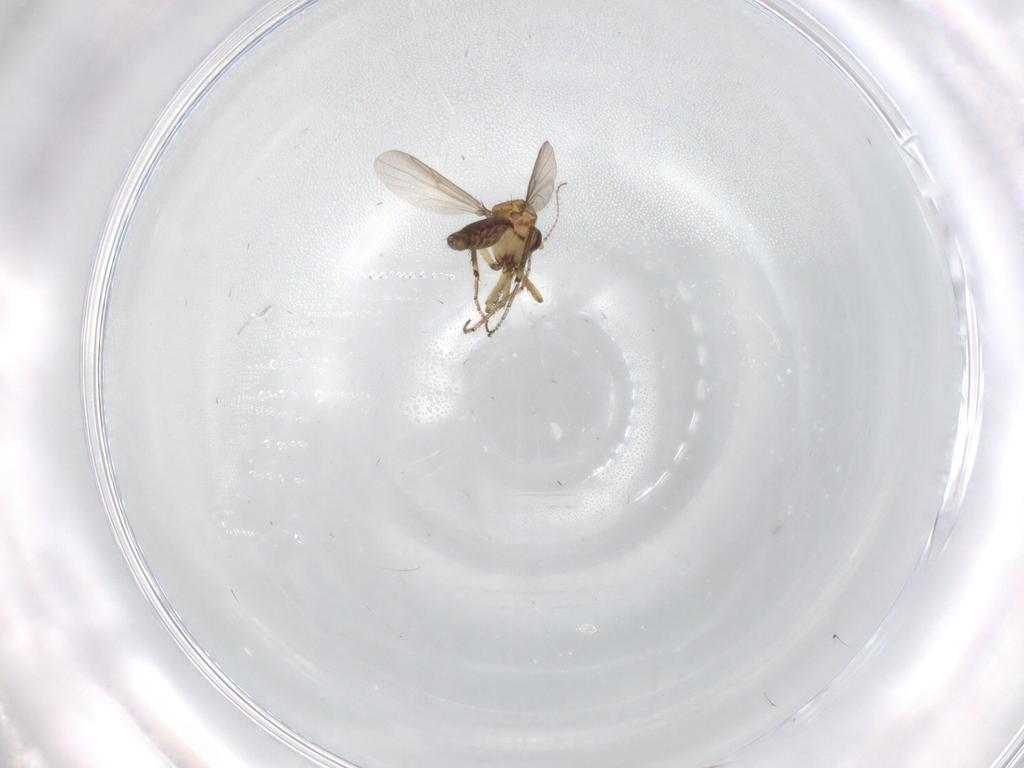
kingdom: Animalia
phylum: Arthropoda
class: Insecta
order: Diptera
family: Ceratopogonidae
